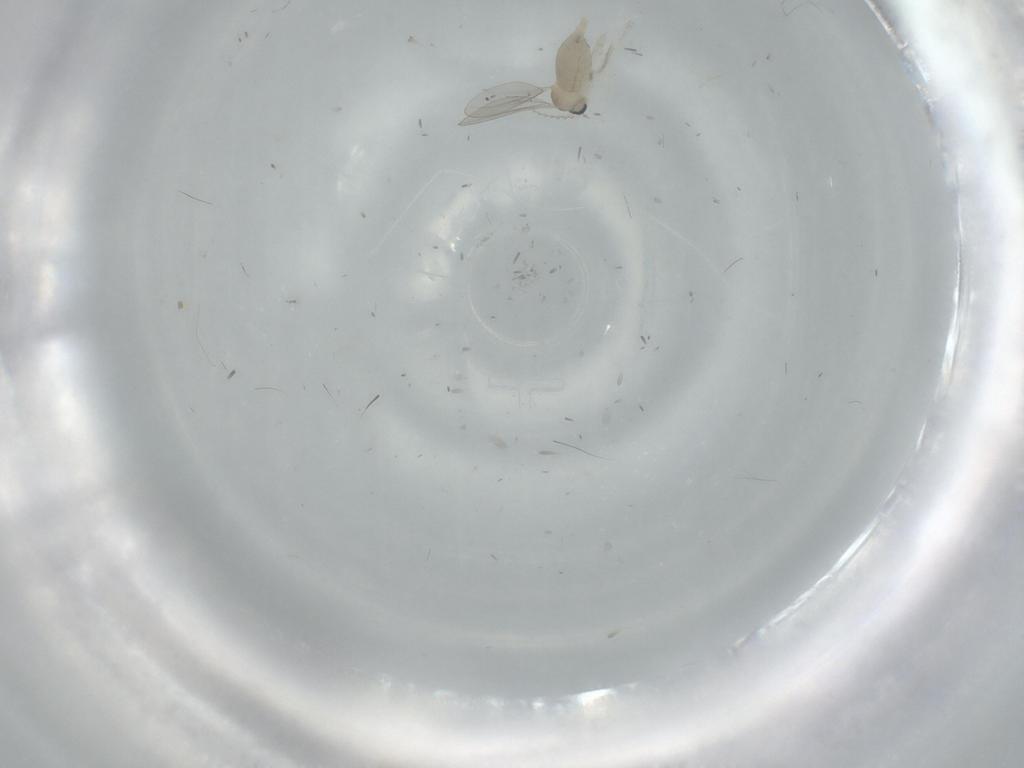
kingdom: Animalia
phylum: Arthropoda
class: Insecta
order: Diptera
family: Cecidomyiidae
